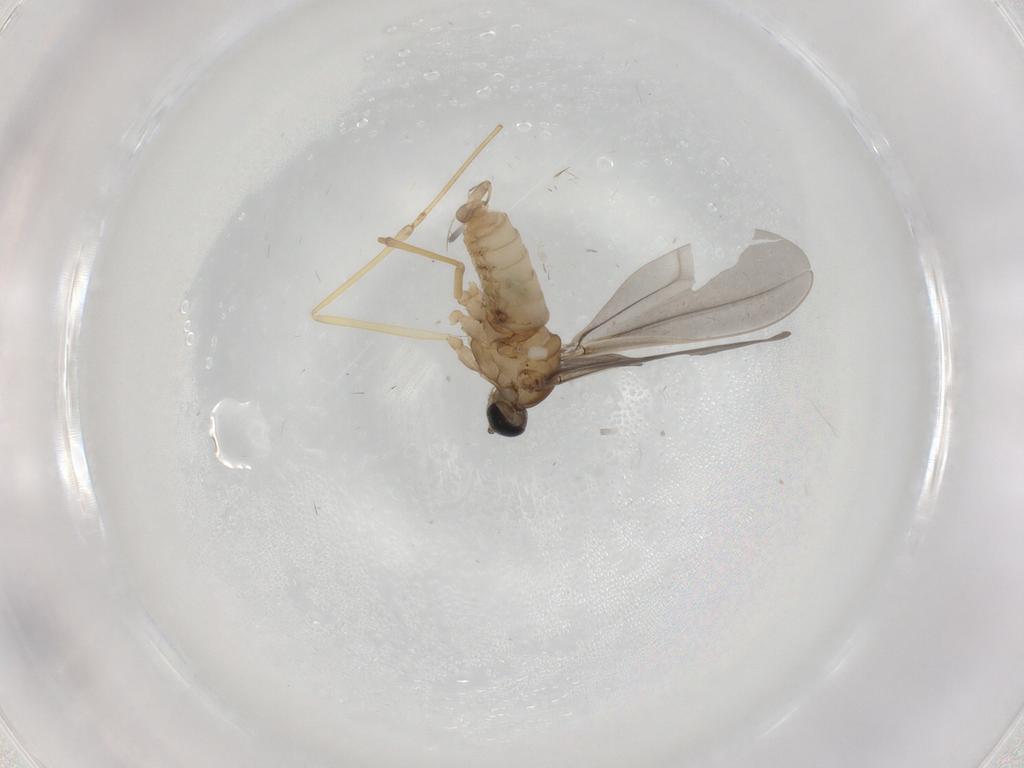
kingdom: Animalia
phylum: Arthropoda
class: Insecta
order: Diptera
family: Cecidomyiidae
